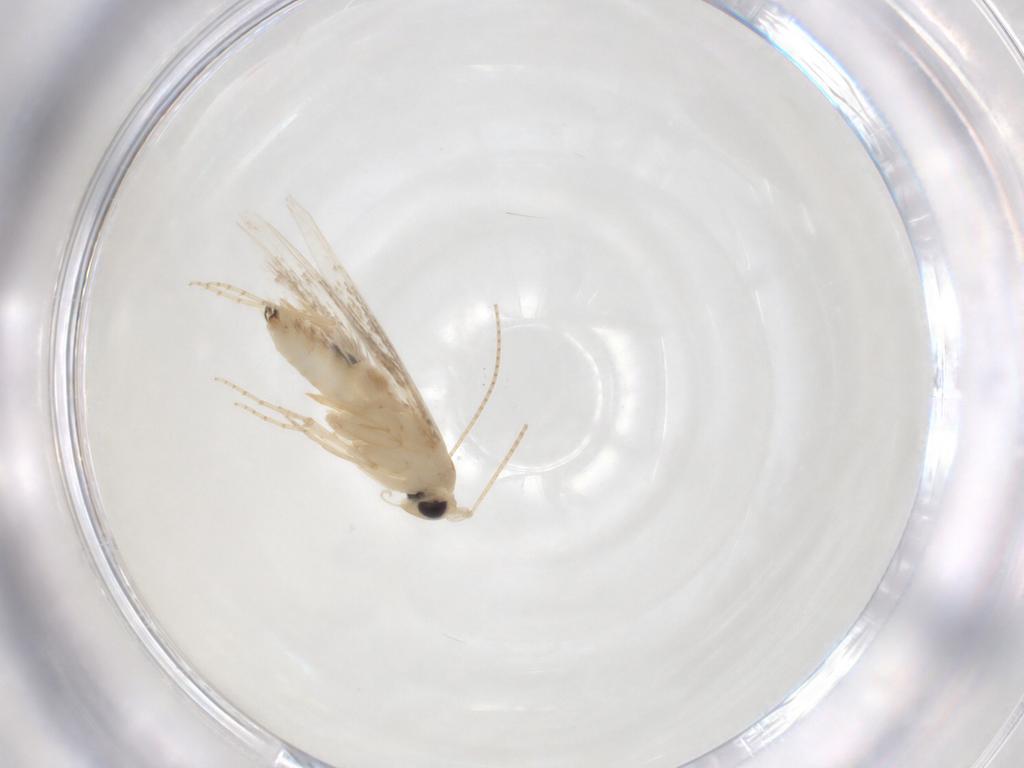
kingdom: Animalia
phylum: Arthropoda
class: Insecta
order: Lepidoptera
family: Bucculatricidae
